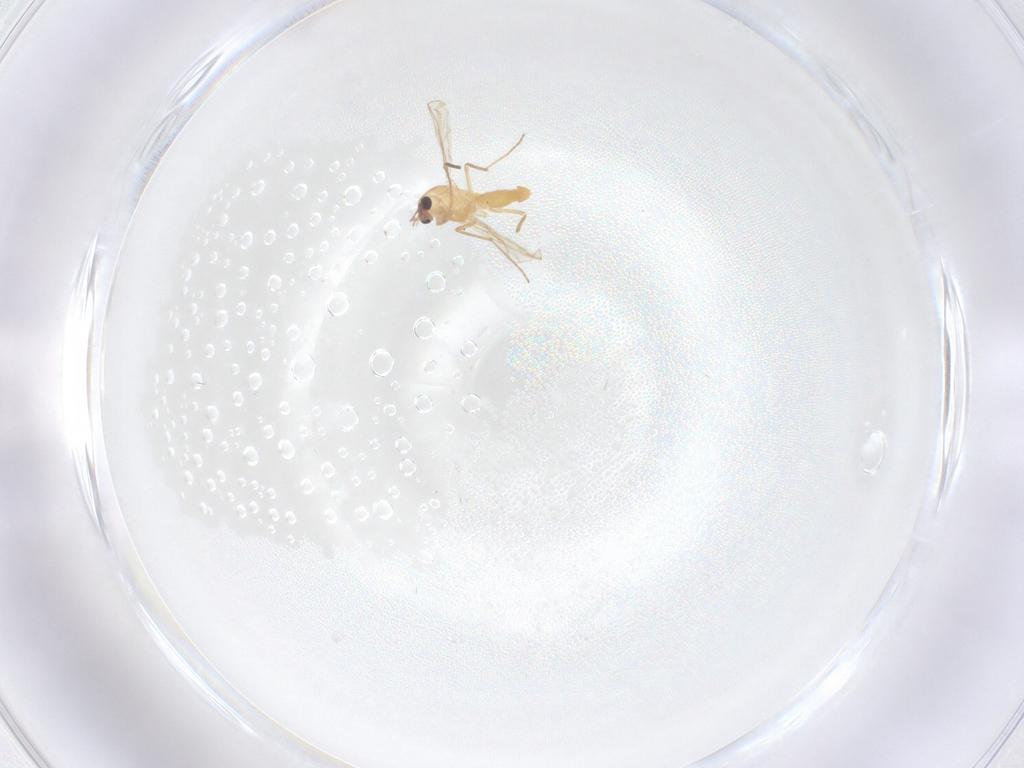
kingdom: Animalia
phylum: Arthropoda
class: Insecta
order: Diptera
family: Chironomidae
